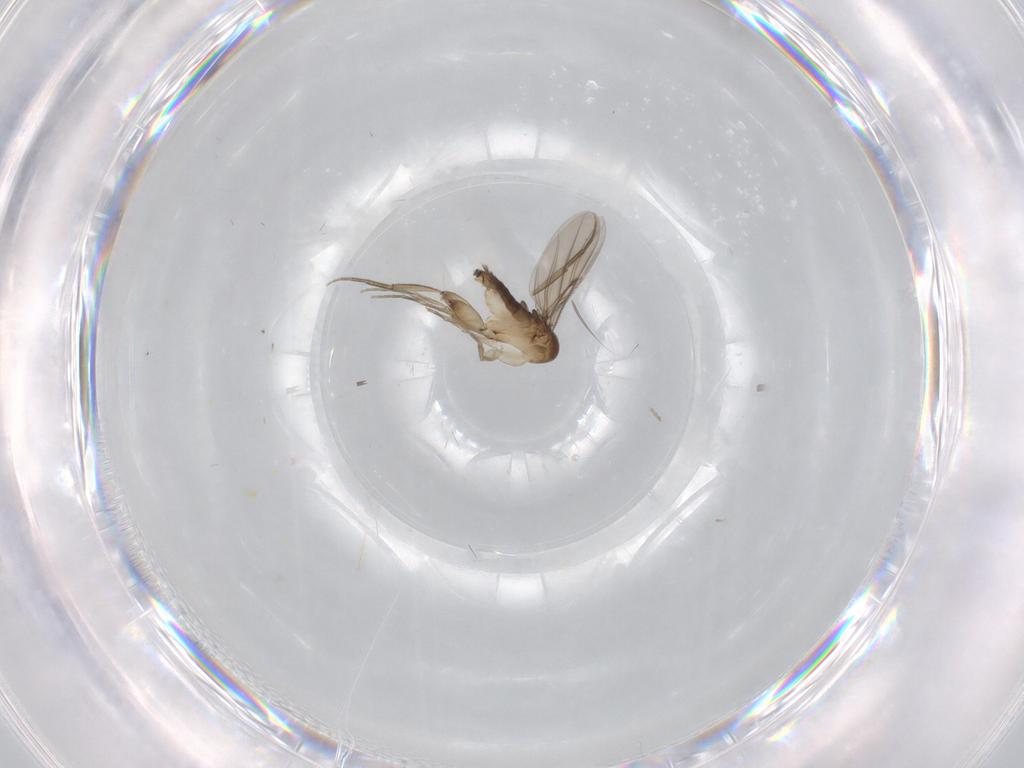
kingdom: Animalia
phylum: Arthropoda
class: Insecta
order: Diptera
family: Phoridae
